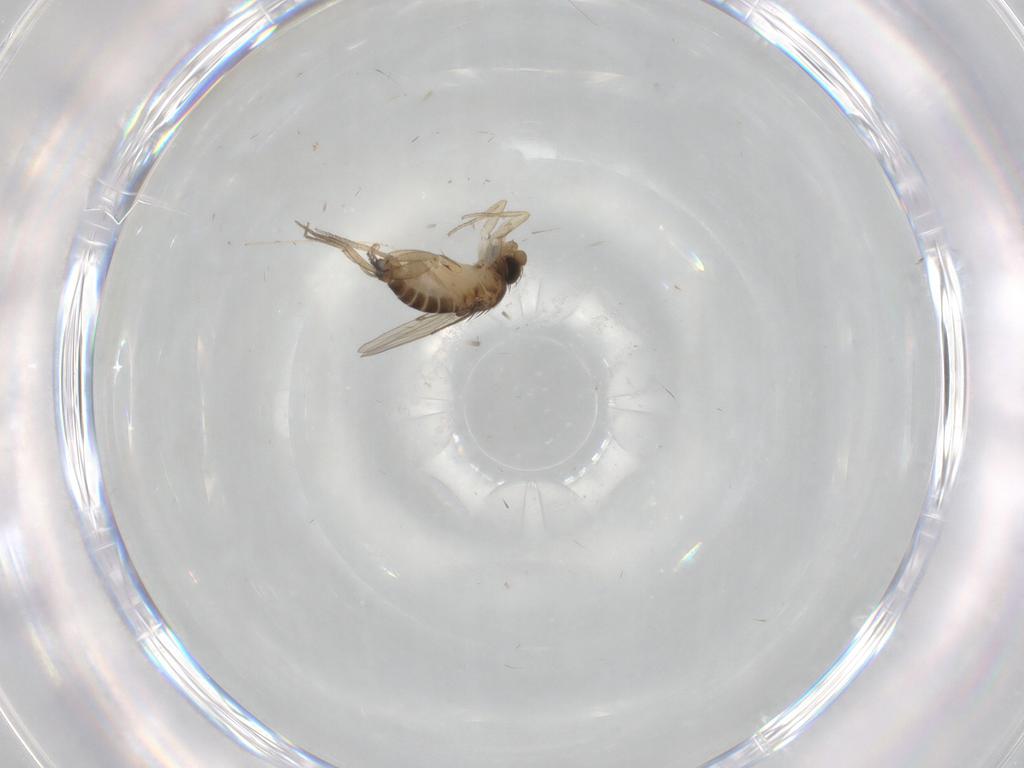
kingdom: Animalia
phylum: Arthropoda
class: Insecta
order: Diptera
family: Chironomidae
